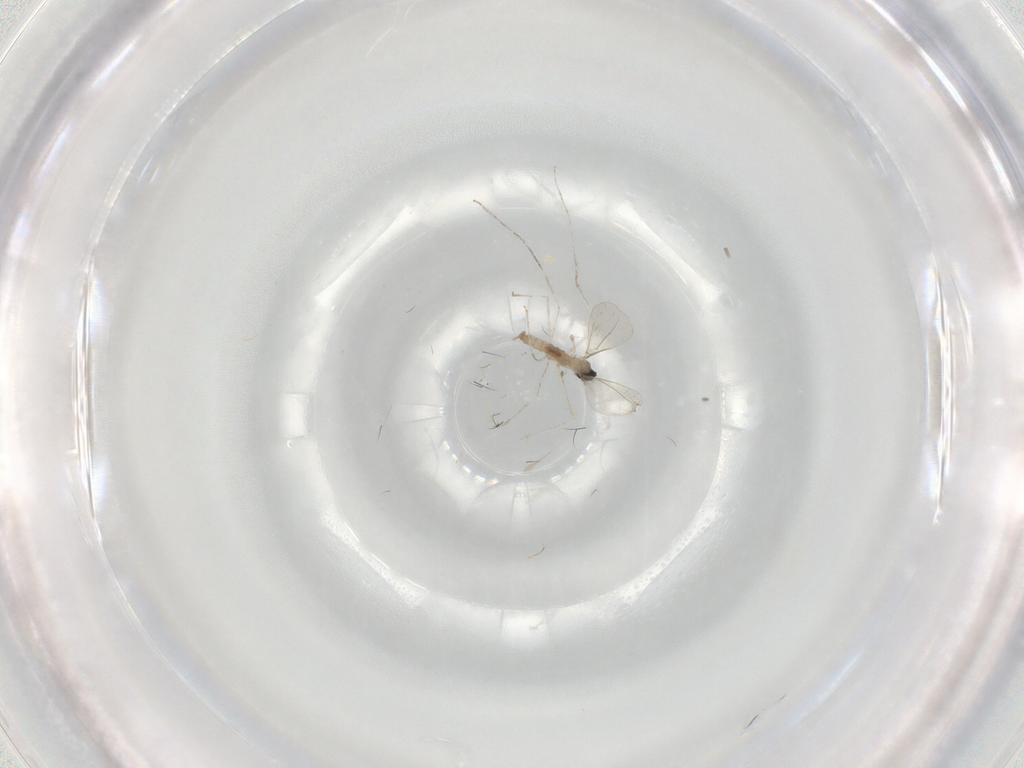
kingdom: Animalia
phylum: Arthropoda
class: Insecta
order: Diptera
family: Cecidomyiidae
